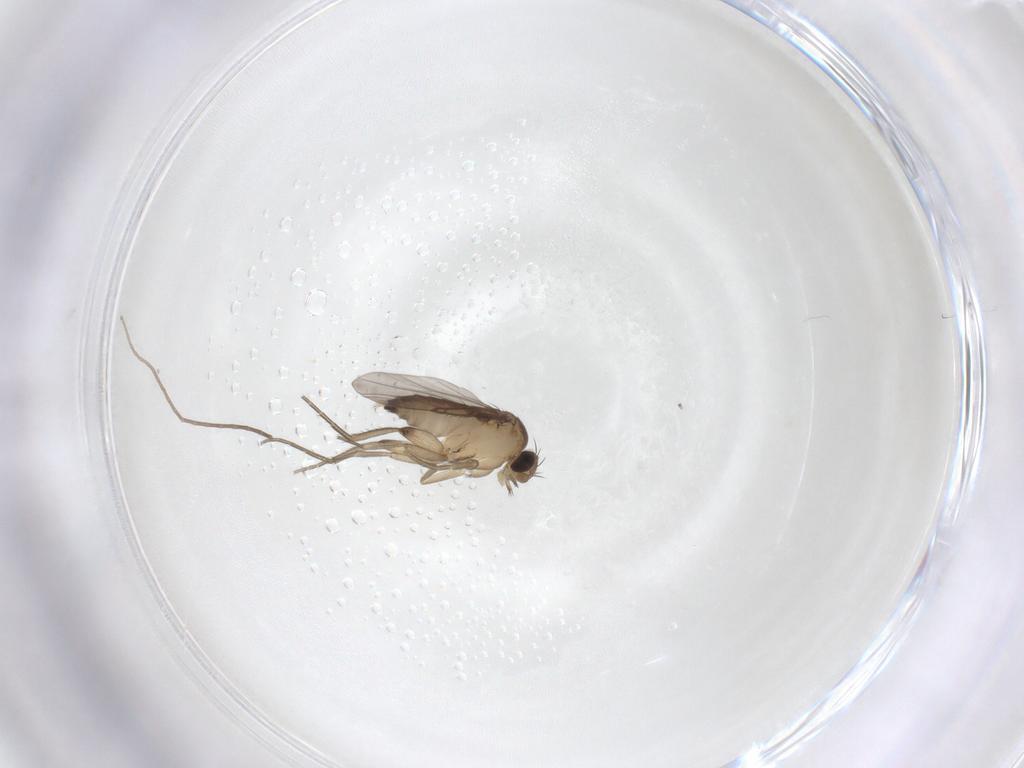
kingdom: Animalia
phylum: Arthropoda
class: Insecta
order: Diptera
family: Phoridae
